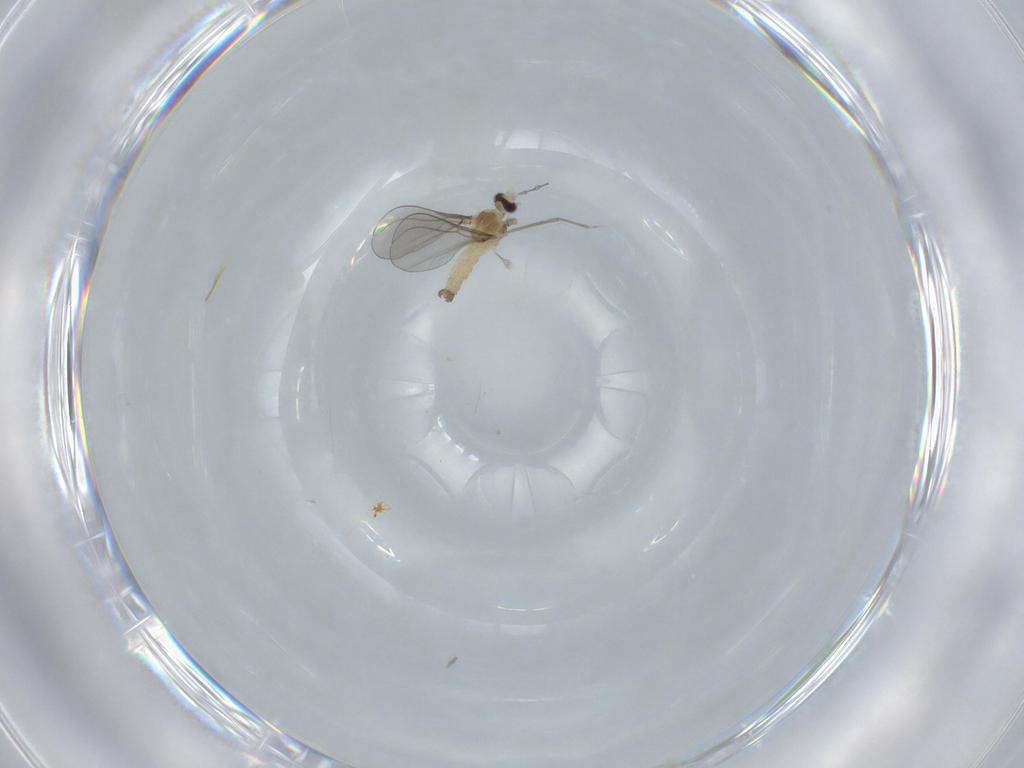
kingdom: Animalia
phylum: Arthropoda
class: Insecta
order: Diptera
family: Cecidomyiidae
